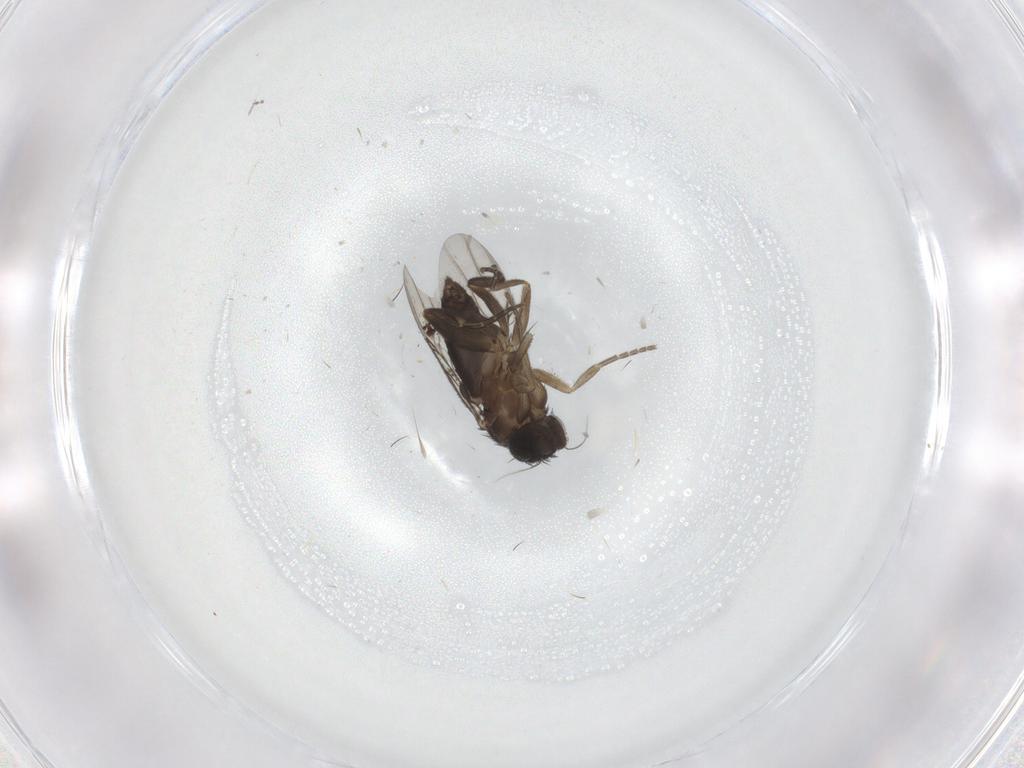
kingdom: Animalia
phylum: Arthropoda
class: Insecta
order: Diptera
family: Phoridae
